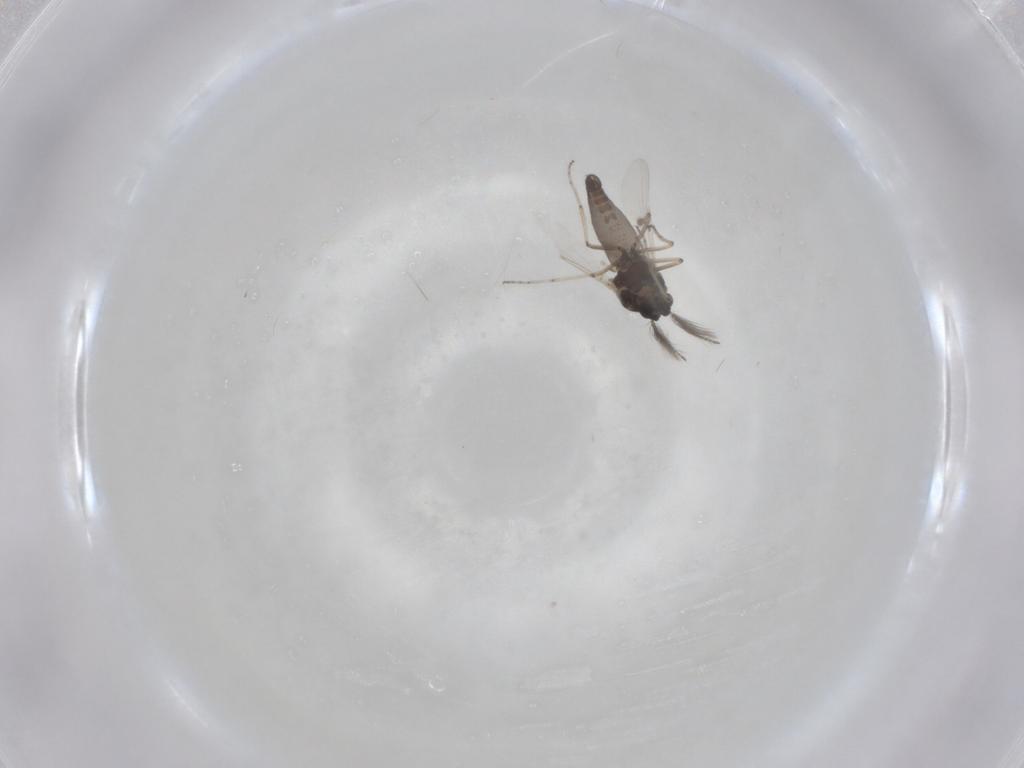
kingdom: Animalia
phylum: Arthropoda
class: Insecta
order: Diptera
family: Ceratopogonidae
